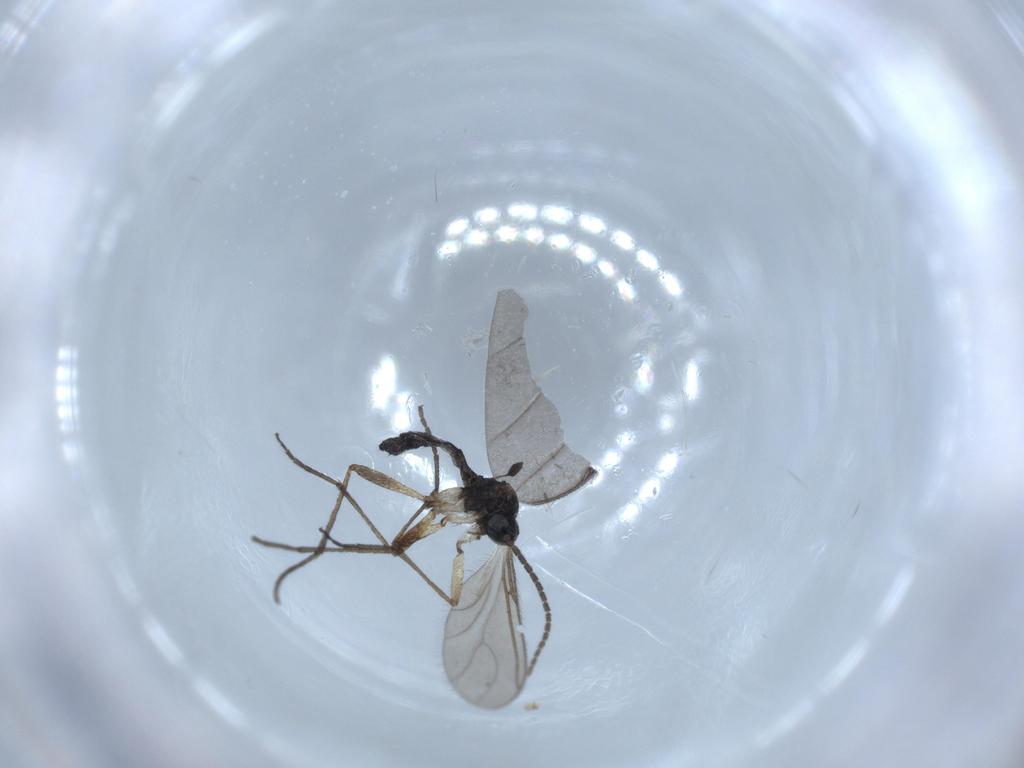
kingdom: Animalia
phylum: Arthropoda
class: Insecta
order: Diptera
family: Sciaridae
